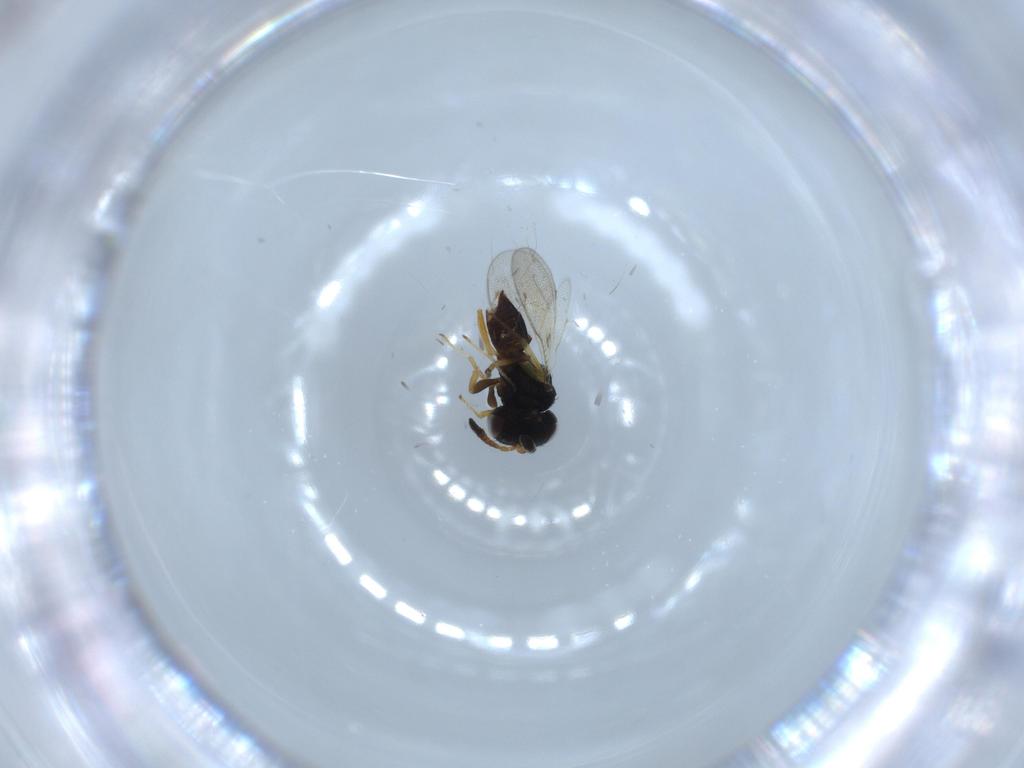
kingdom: Animalia
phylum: Arthropoda
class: Insecta
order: Hymenoptera
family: Pteromalidae
